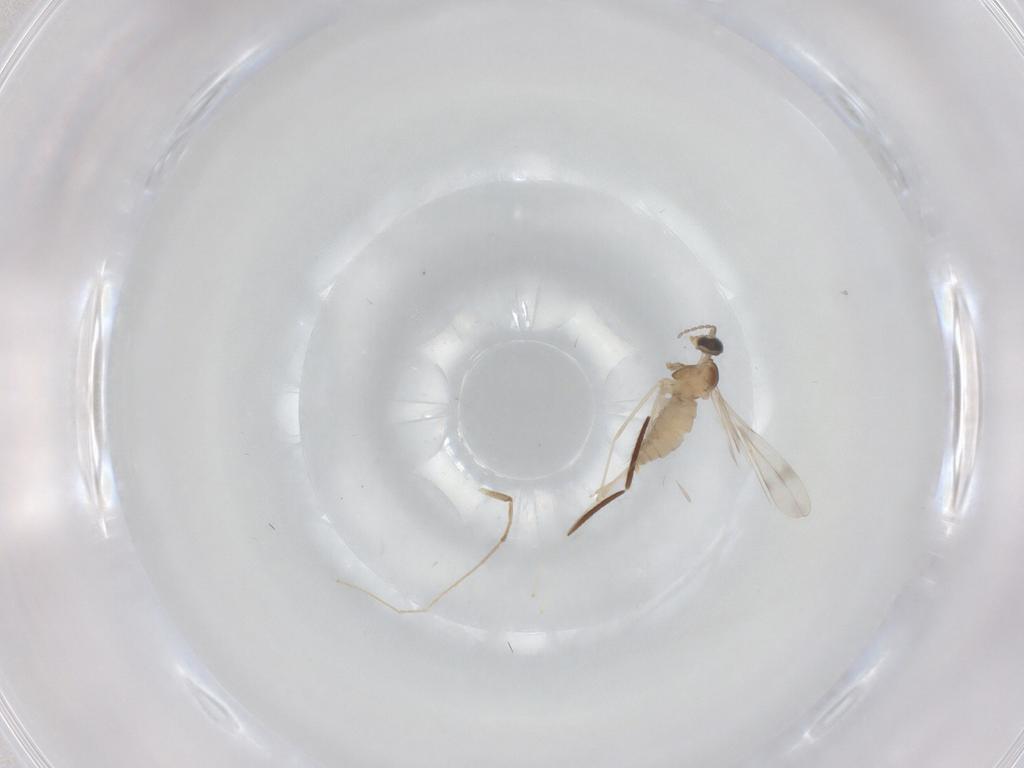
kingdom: Animalia
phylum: Arthropoda
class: Insecta
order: Diptera
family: Cecidomyiidae
